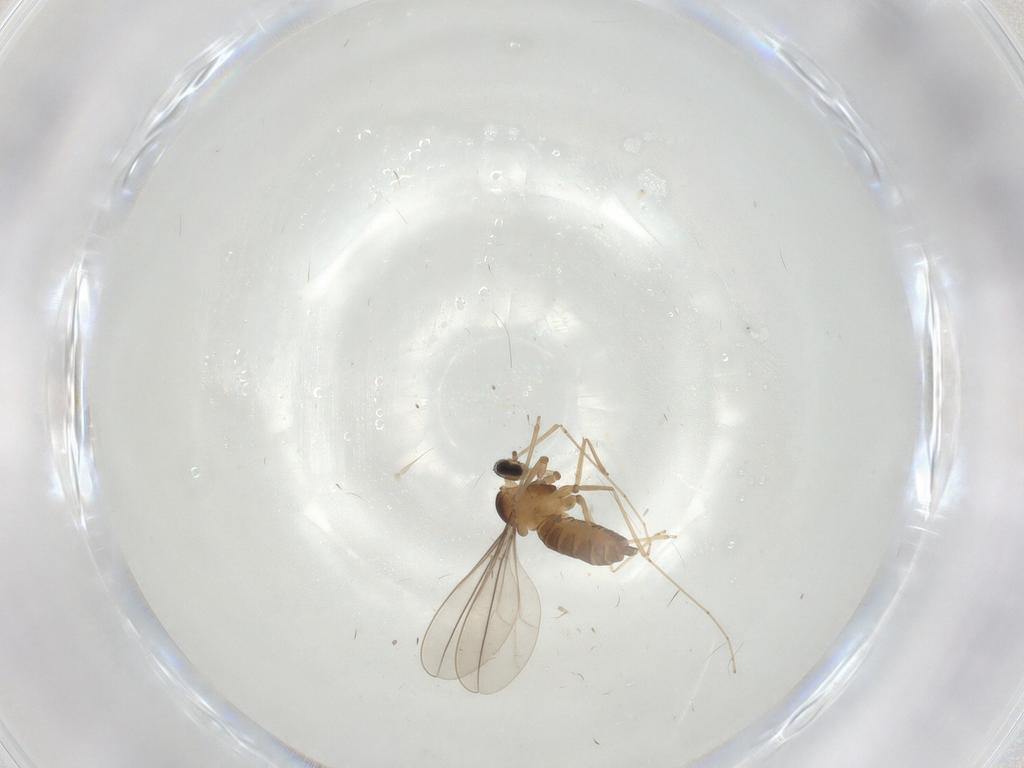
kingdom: Animalia
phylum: Arthropoda
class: Insecta
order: Diptera
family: Cecidomyiidae
